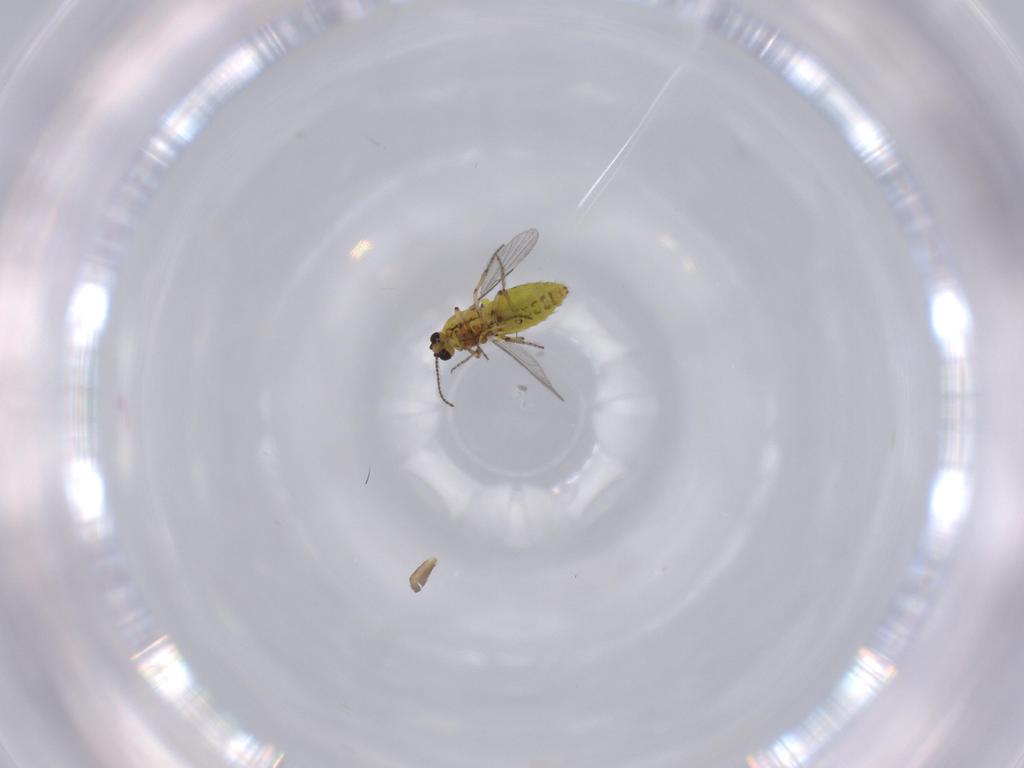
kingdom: Animalia
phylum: Arthropoda
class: Insecta
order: Diptera
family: Ceratopogonidae
